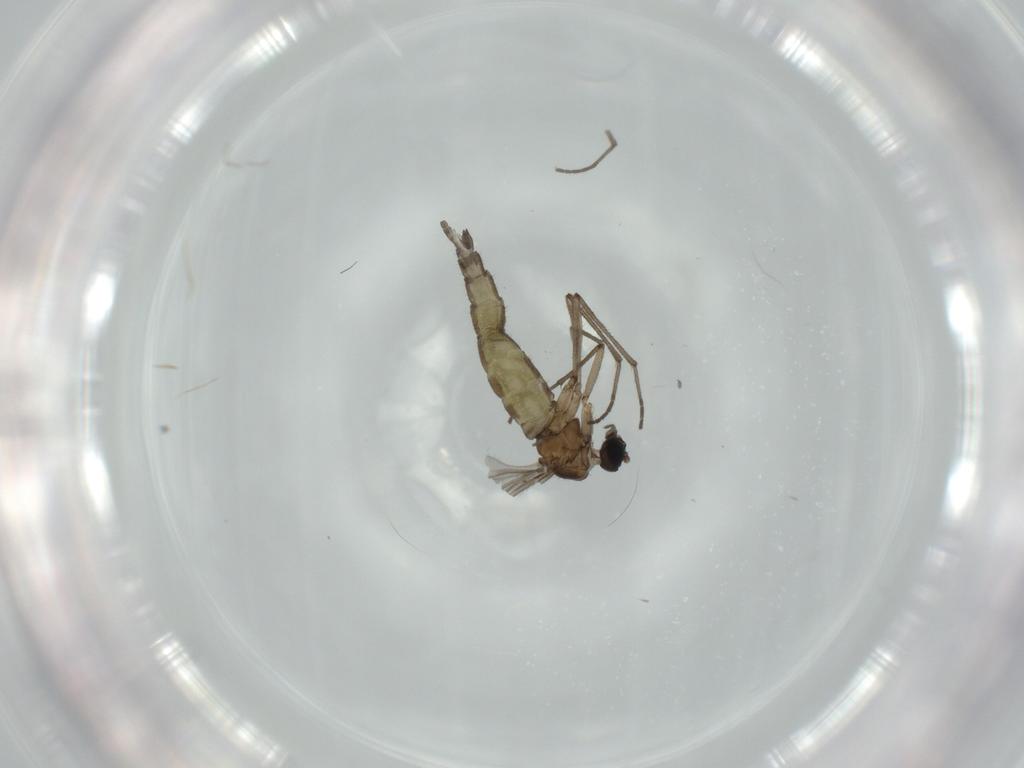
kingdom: Animalia
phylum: Arthropoda
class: Insecta
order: Diptera
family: Sciaridae
